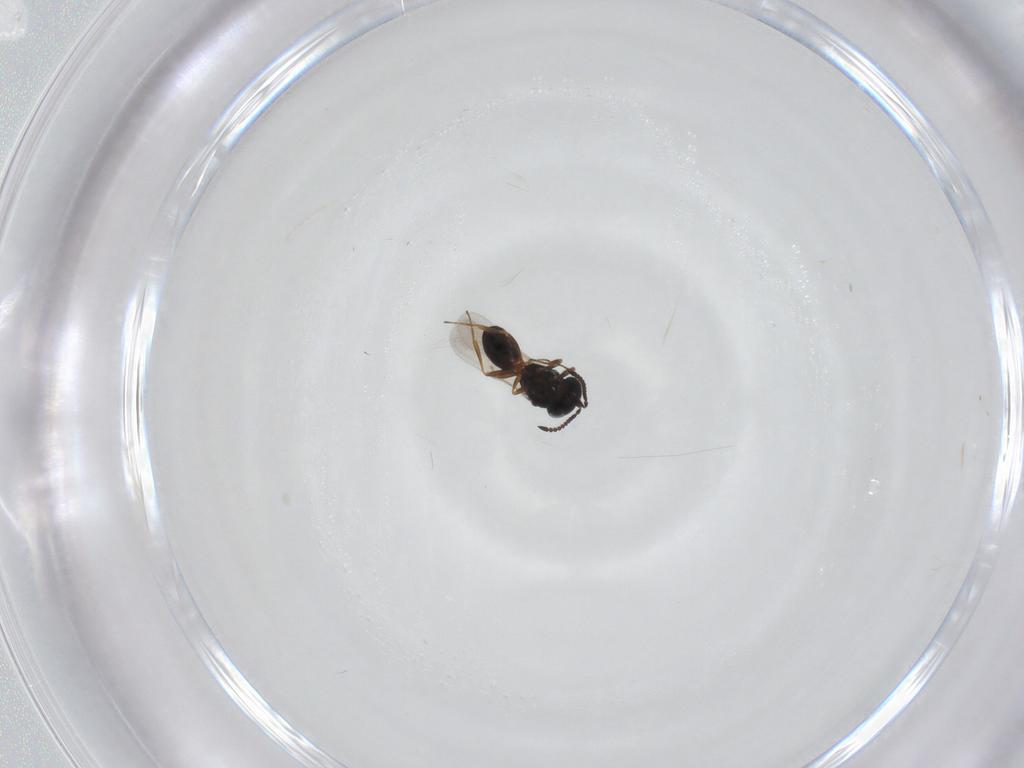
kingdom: Animalia
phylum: Arthropoda
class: Arachnida
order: Araneae
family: Pholcidae
